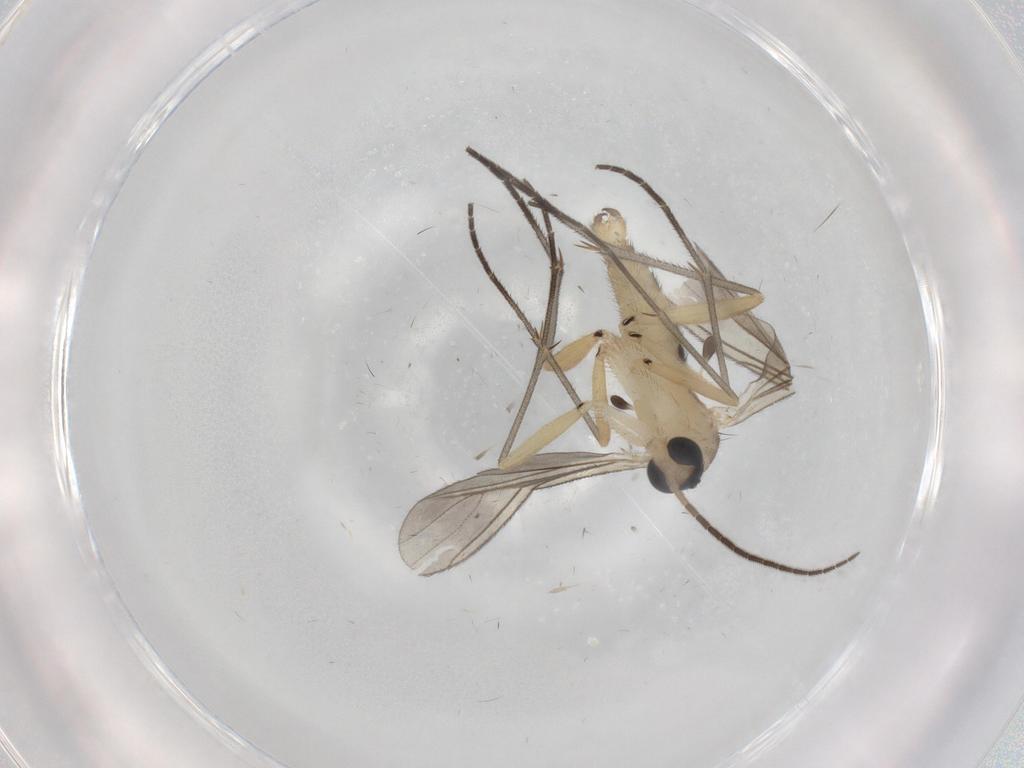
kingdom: Animalia
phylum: Arthropoda
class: Insecta
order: Diptera
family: Sciaridae
